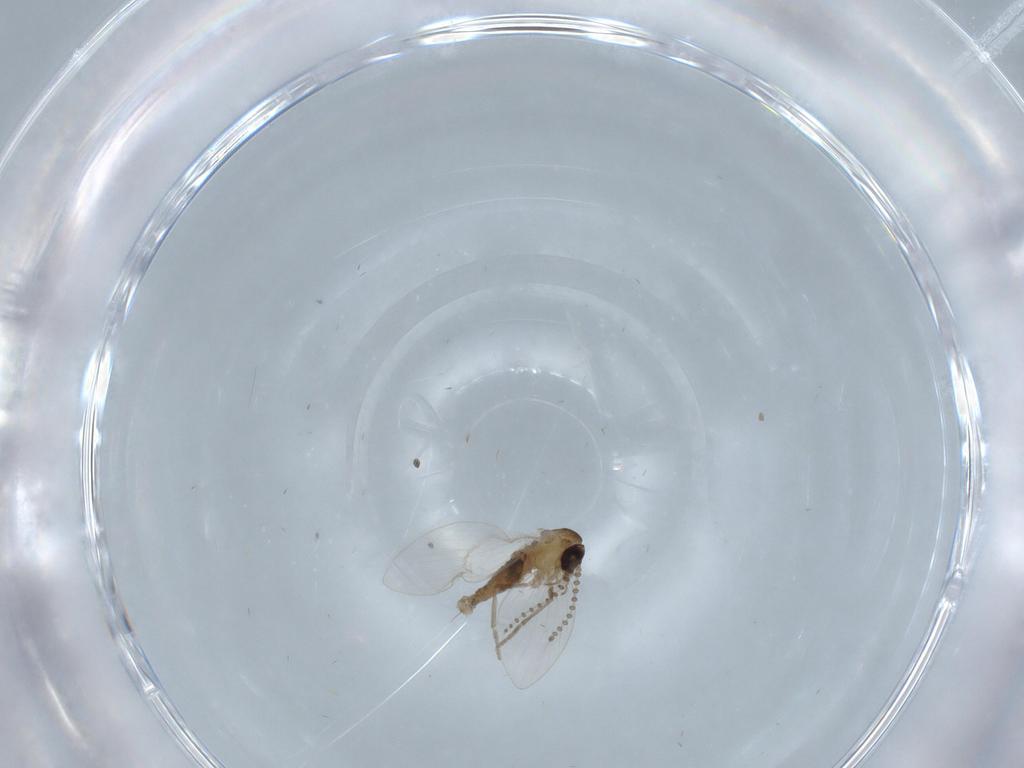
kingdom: Animalia
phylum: Arthropoda
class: Insecta
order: Diptera
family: Psychodidae
